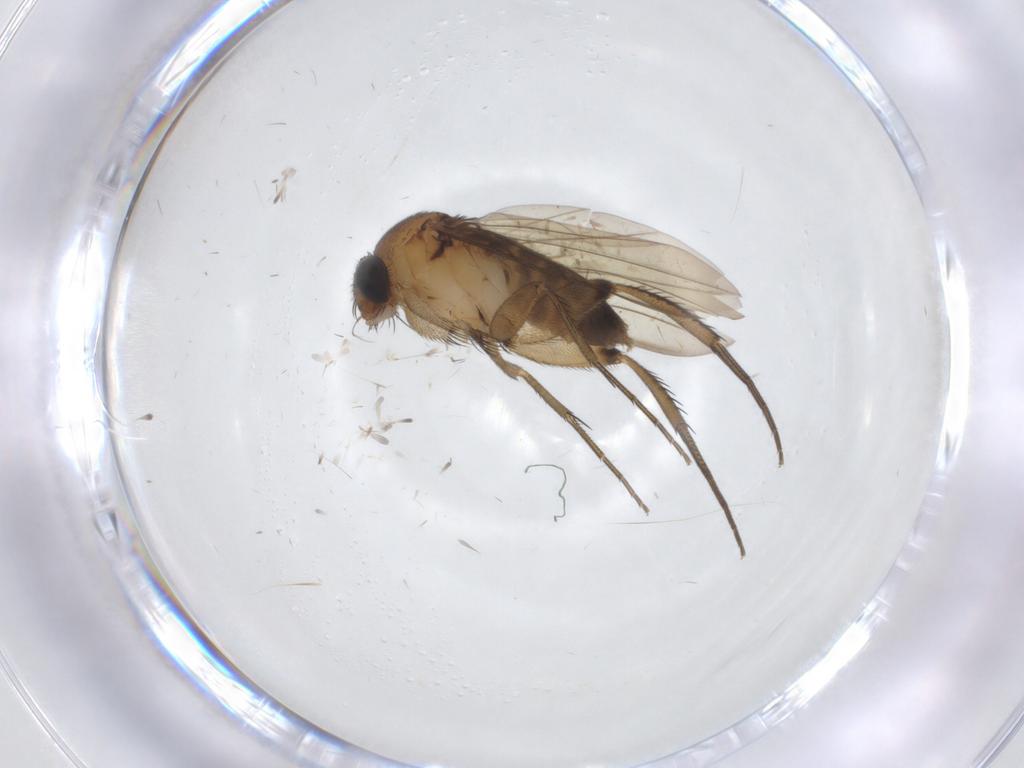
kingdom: Animalia
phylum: Arthropoda
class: Insecta
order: Diptera
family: Phoridae
